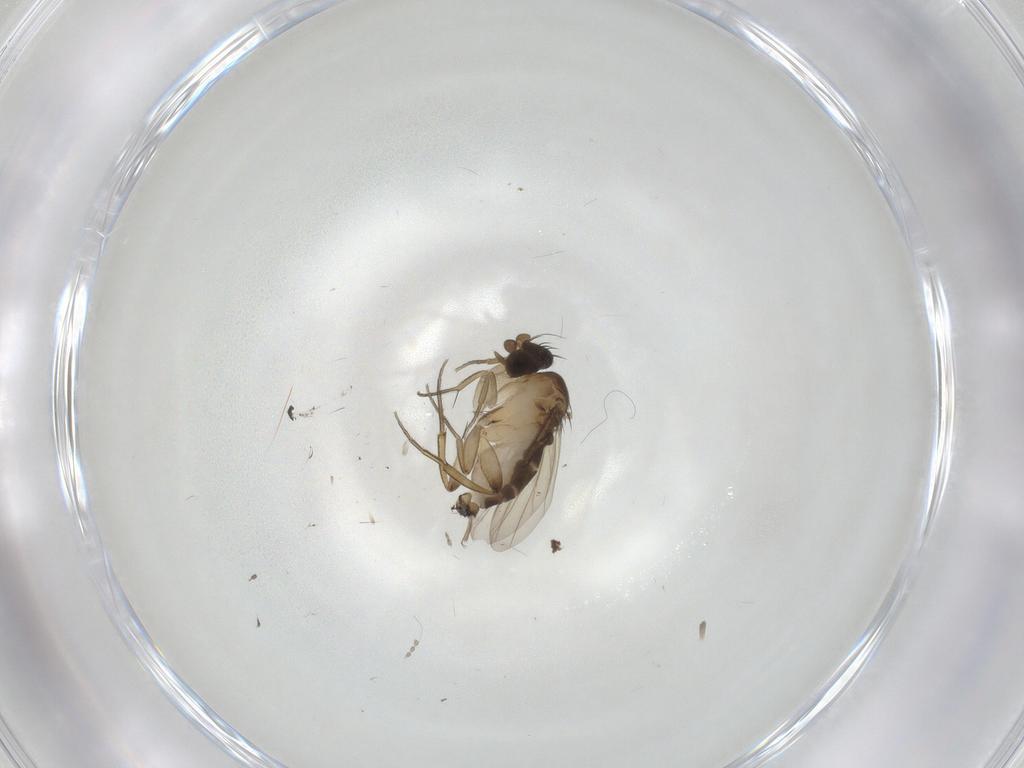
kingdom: Animalia
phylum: Arthropoda
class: Insecta
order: Diptera
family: Phoridae
